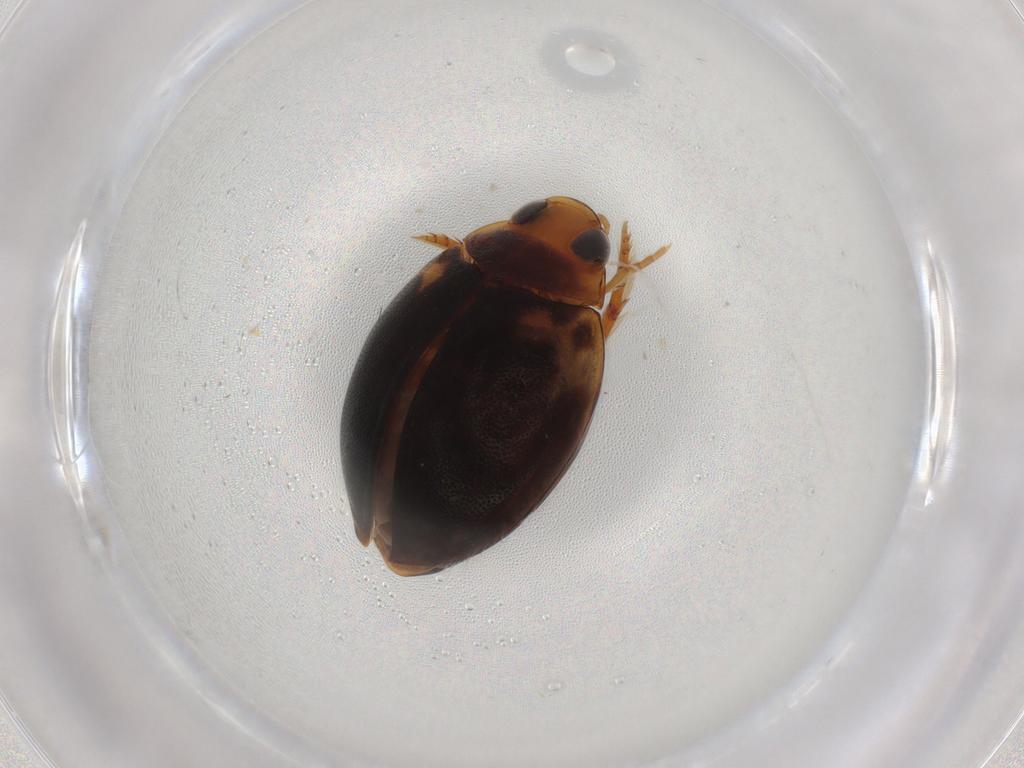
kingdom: Animalia
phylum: Arthropoda
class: Insecta
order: Coleoptera
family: Dytiscidae
